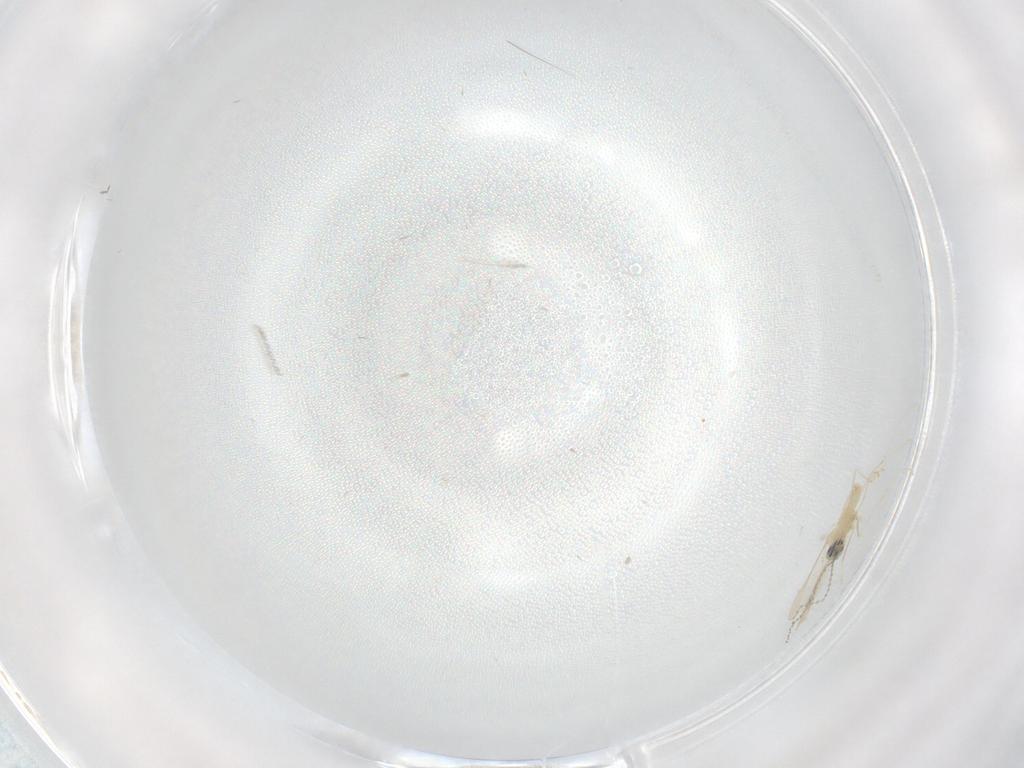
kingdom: Animalia
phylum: Arthropoda
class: Insecta
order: Diptera
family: Cecidomyiidae
